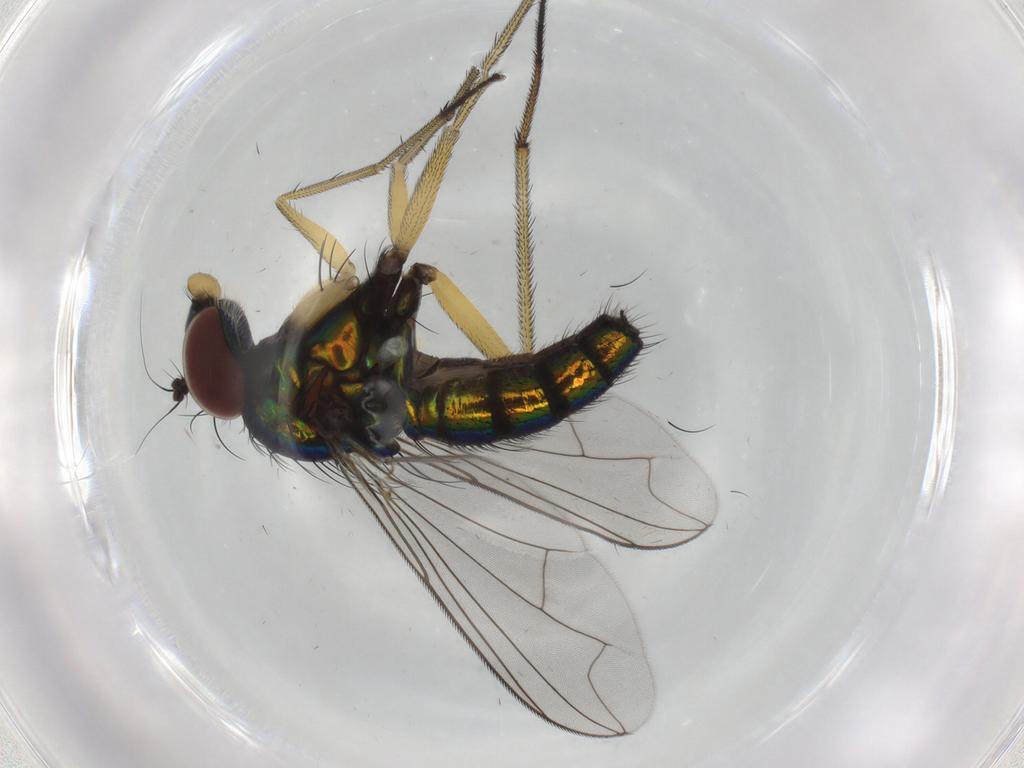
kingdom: Animalia
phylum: Arthropoda
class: Insecta
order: Diptera
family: Dolichopodidae
